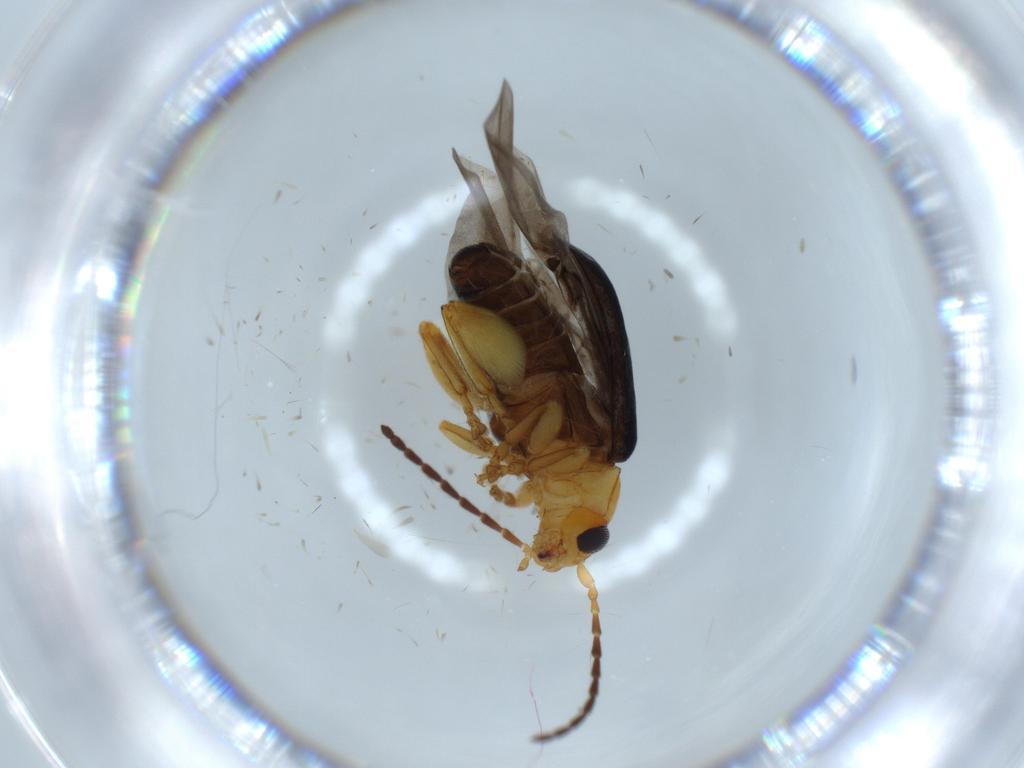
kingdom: Animalia
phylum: Arthropoda
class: Insecta
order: Coleoptera
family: Chrysomelidae
